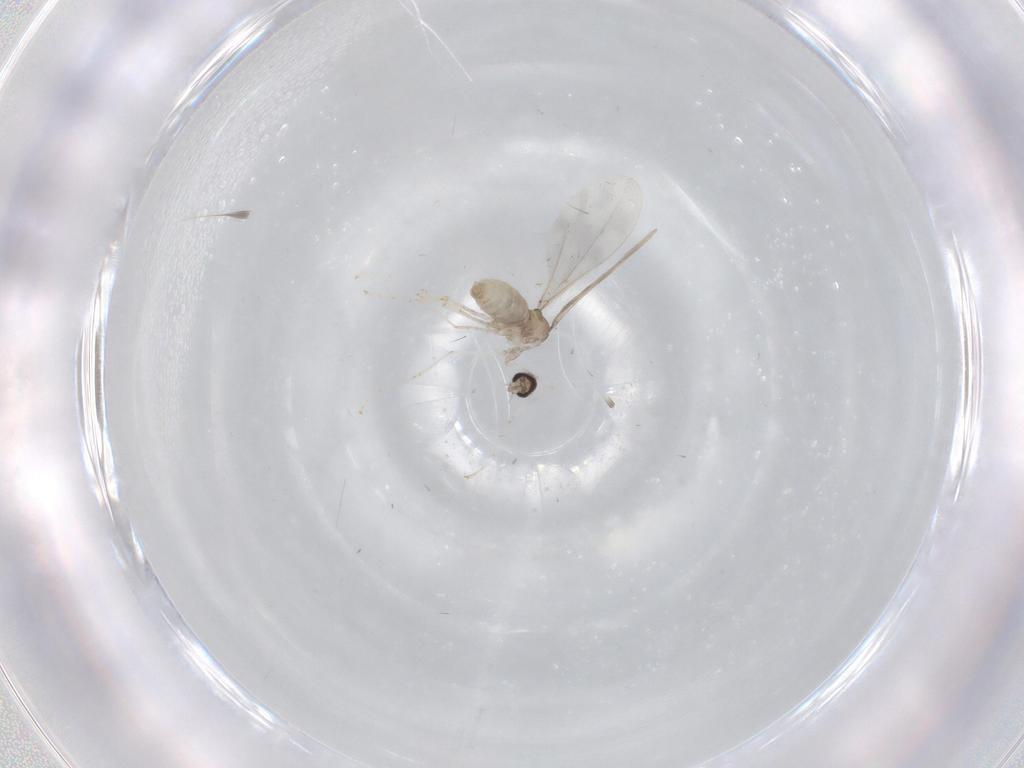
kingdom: Animalia
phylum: Arthropoda
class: Insecta
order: Diptera
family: Cecidomyiidae
